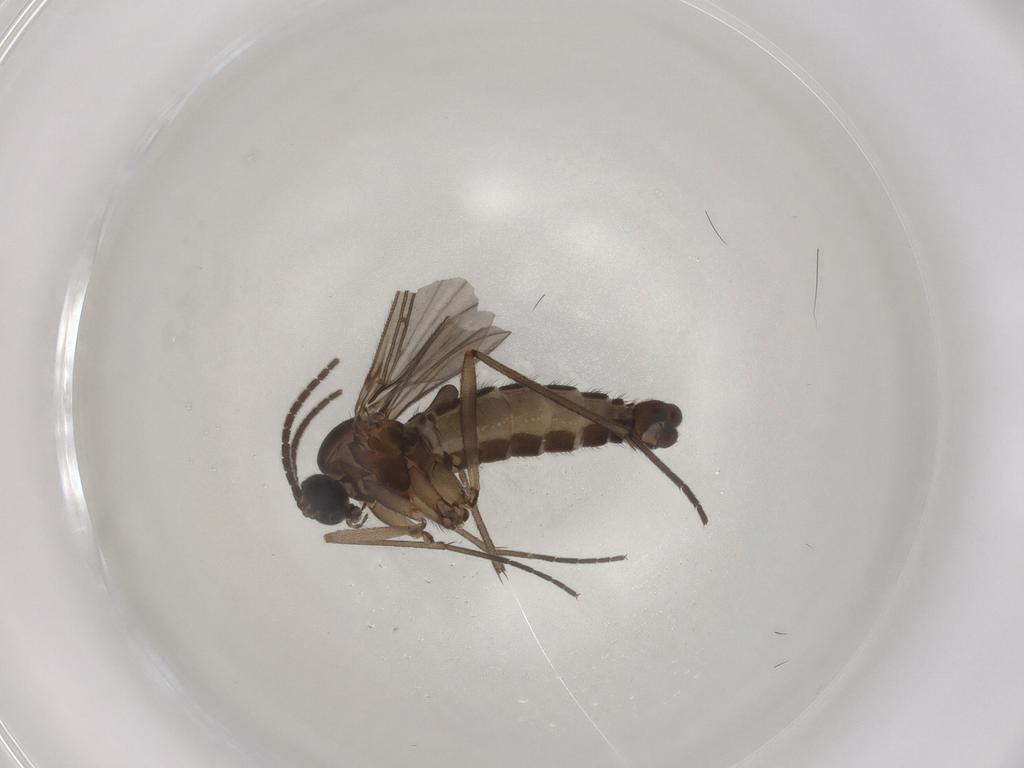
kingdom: Animalia
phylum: Arthropoda
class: Insecta
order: Diptera
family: Sciaridae
